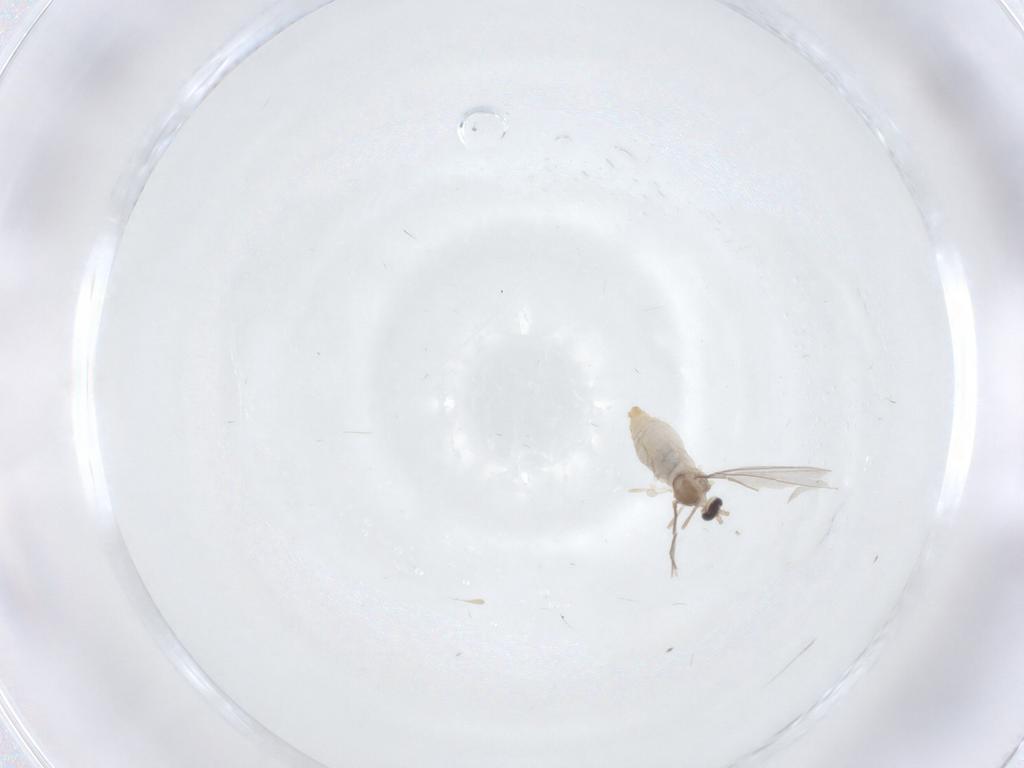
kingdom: Animalia
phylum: Arthropoda
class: Insecta
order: Diptera
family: Phoridae
